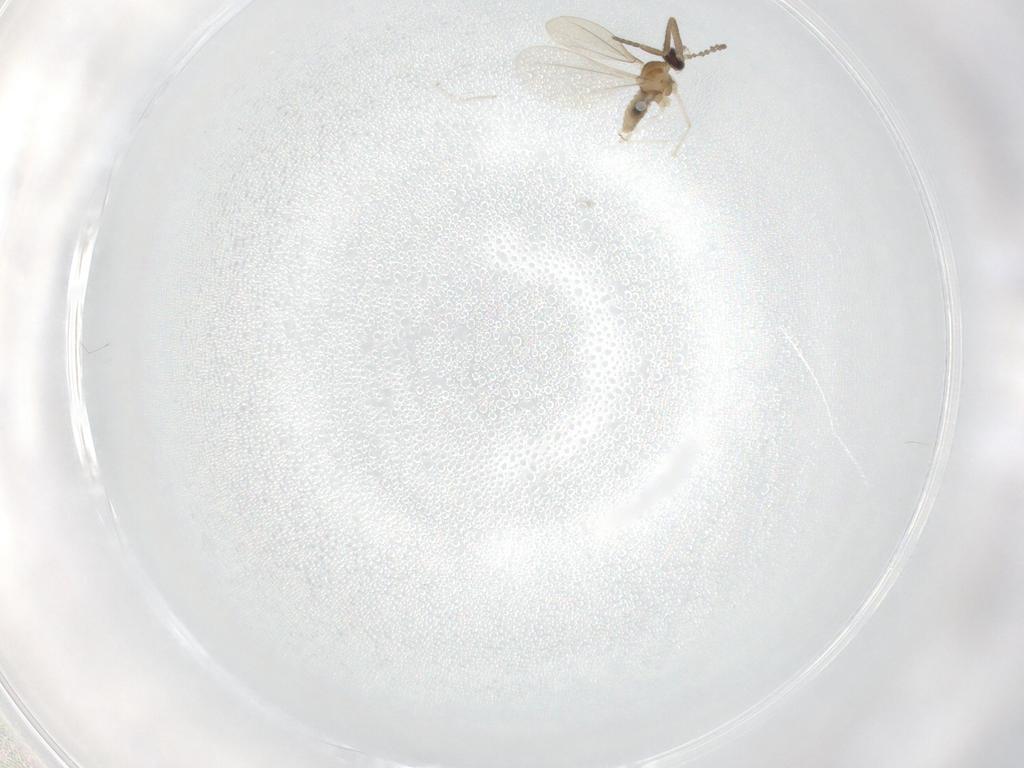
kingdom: Animalia
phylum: Arthropoda
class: Insecta
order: Diptera
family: Cecidomyiidae
